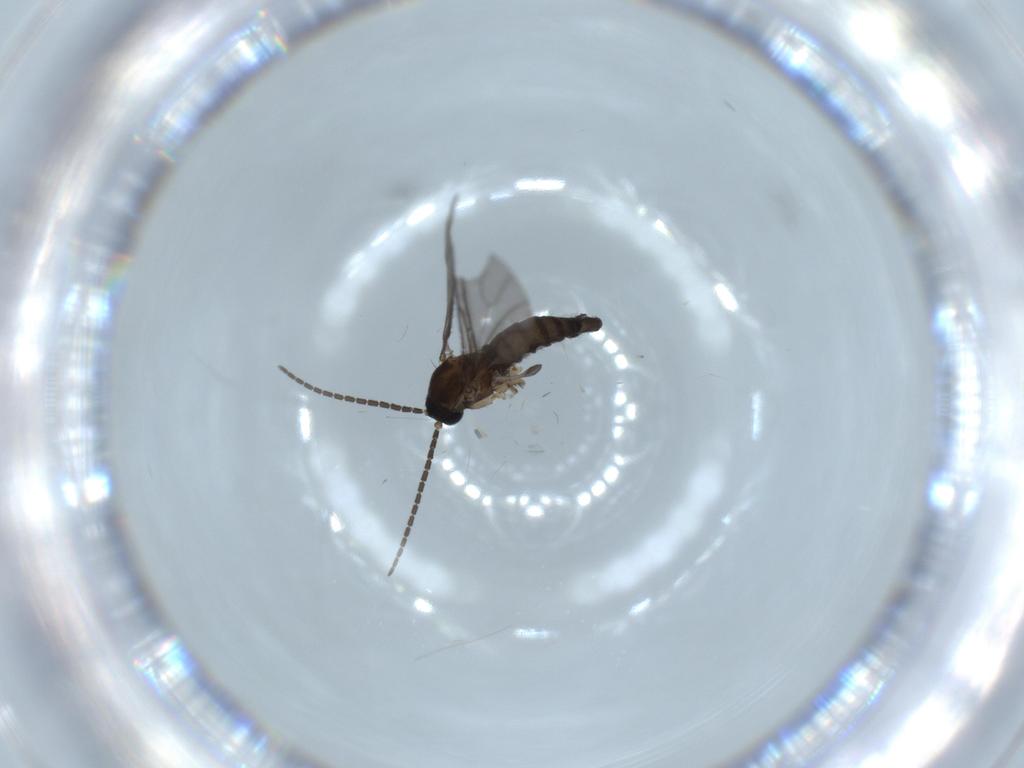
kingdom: Animalia
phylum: Arthropoda
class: Insecta
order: Diptera
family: Sciaridae
